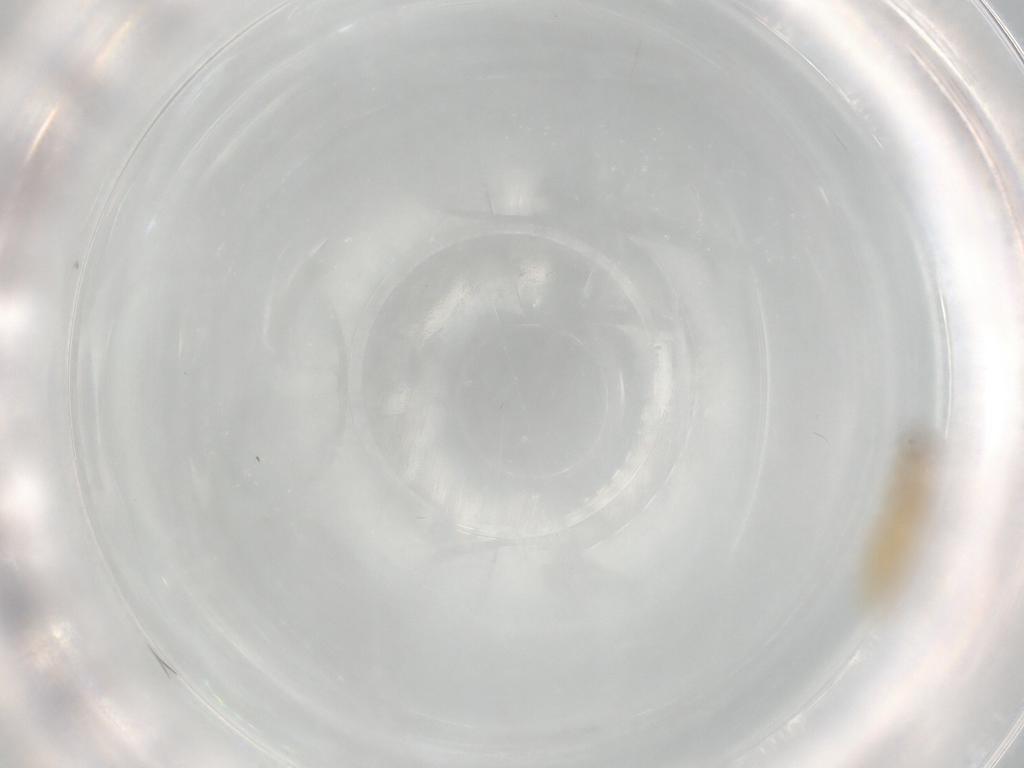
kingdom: Animalia
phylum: Arthropoda
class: Insecta
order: Diptera
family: Chironomidae
